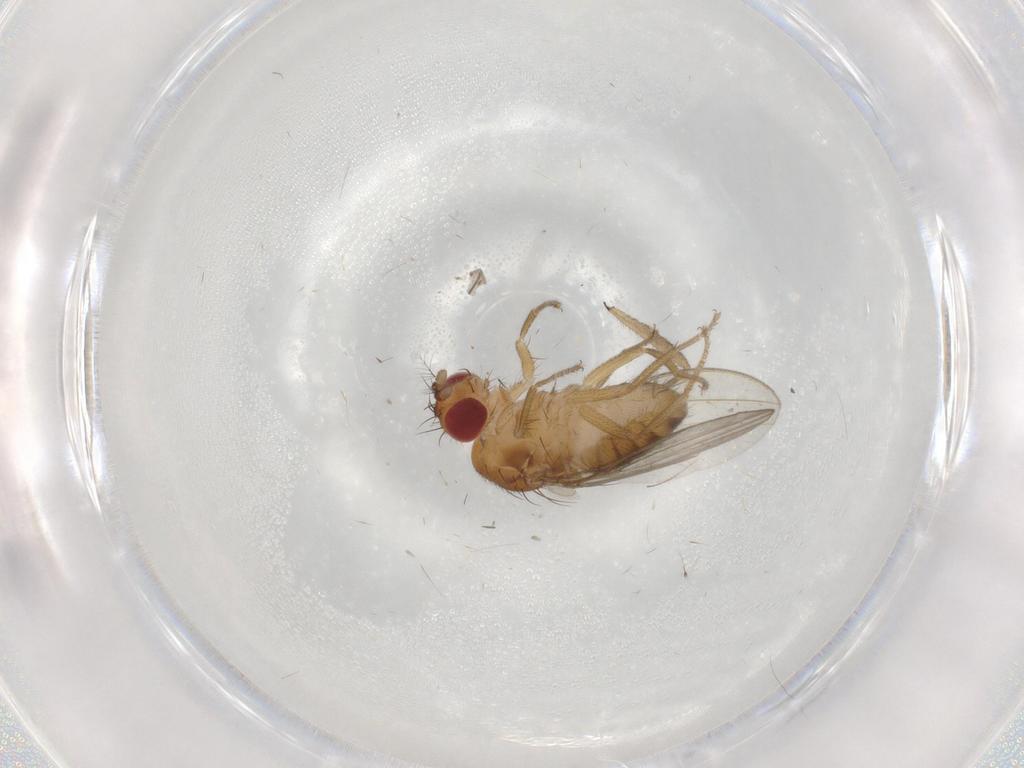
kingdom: Animalia
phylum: Arthropoda
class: Insecta
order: Diptera
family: Drosophilidae
